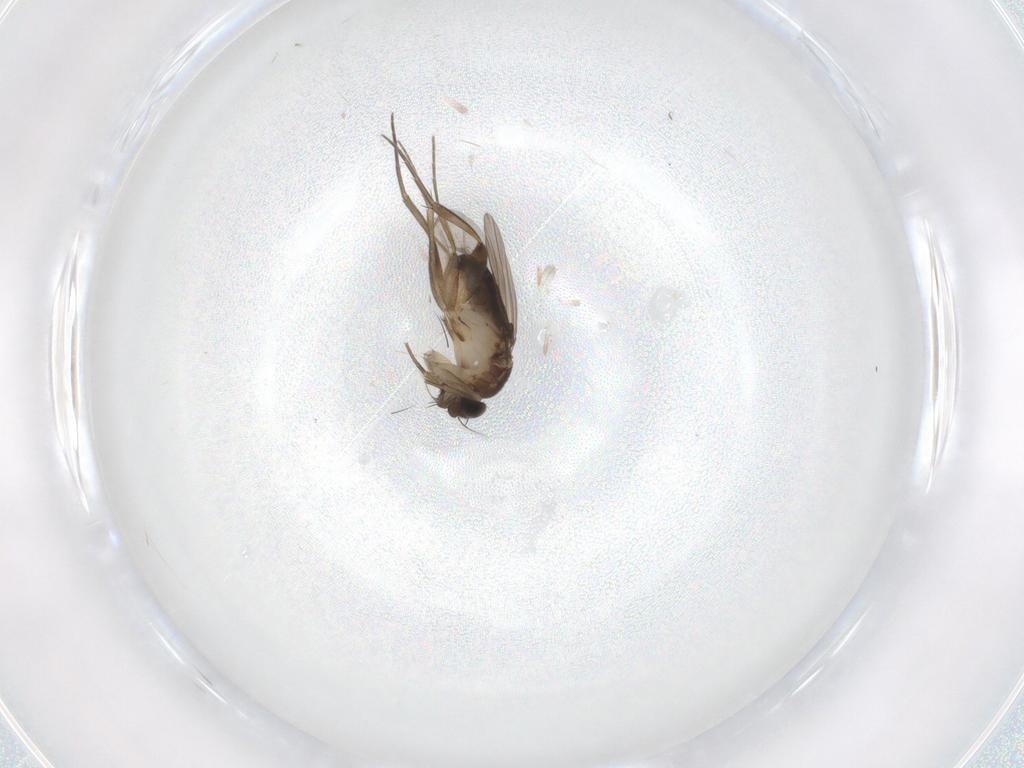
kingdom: Animalia
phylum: Arthropoda
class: Insecta
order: Diptera
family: Phoridae
